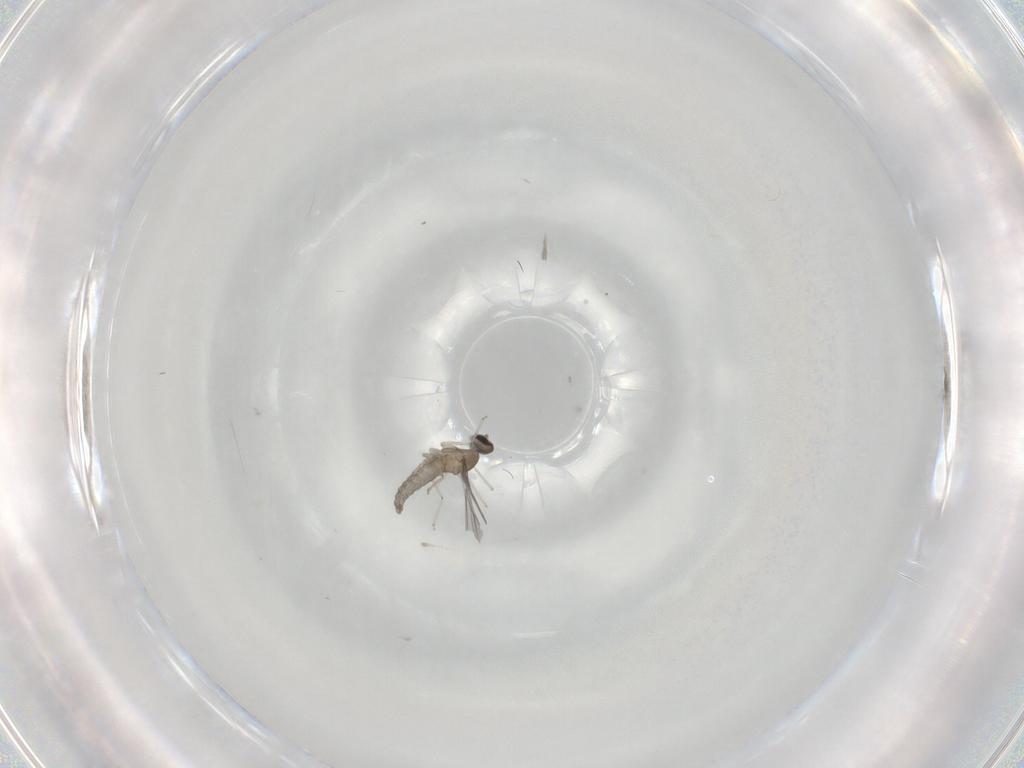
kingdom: Animalia
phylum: Arthropoda
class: Insecta
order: Diptera
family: Cecidomyiidae
